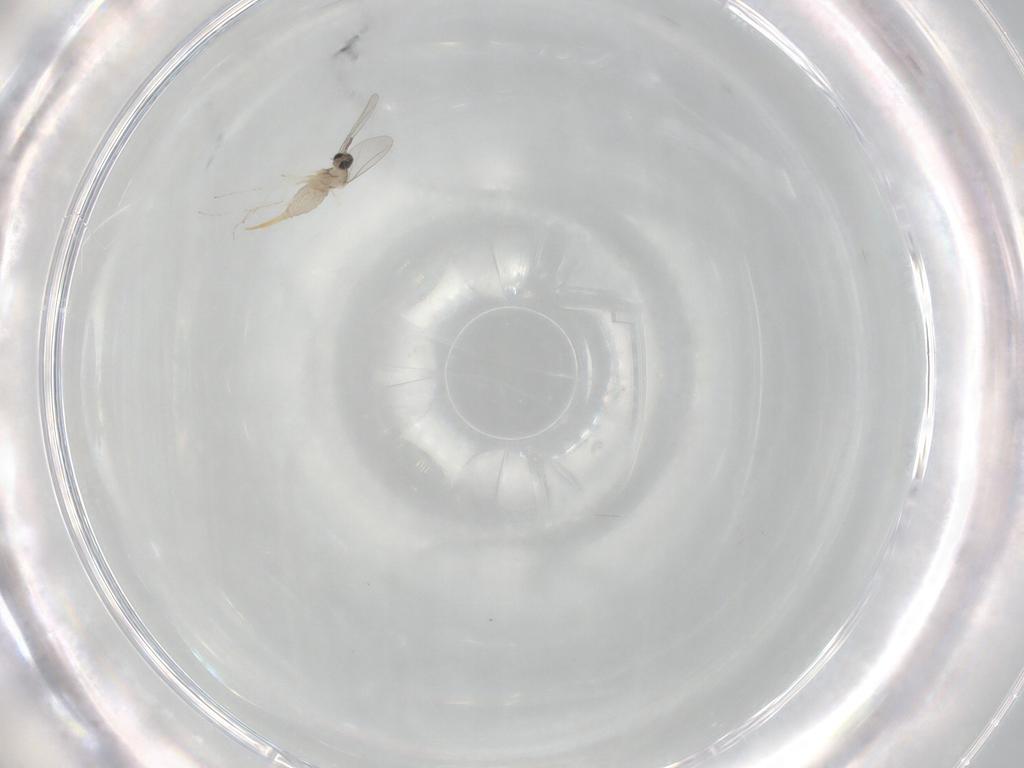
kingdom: Animalia
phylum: Arthropoda
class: Insecta
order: Diptera
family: Cecidomyiidae
